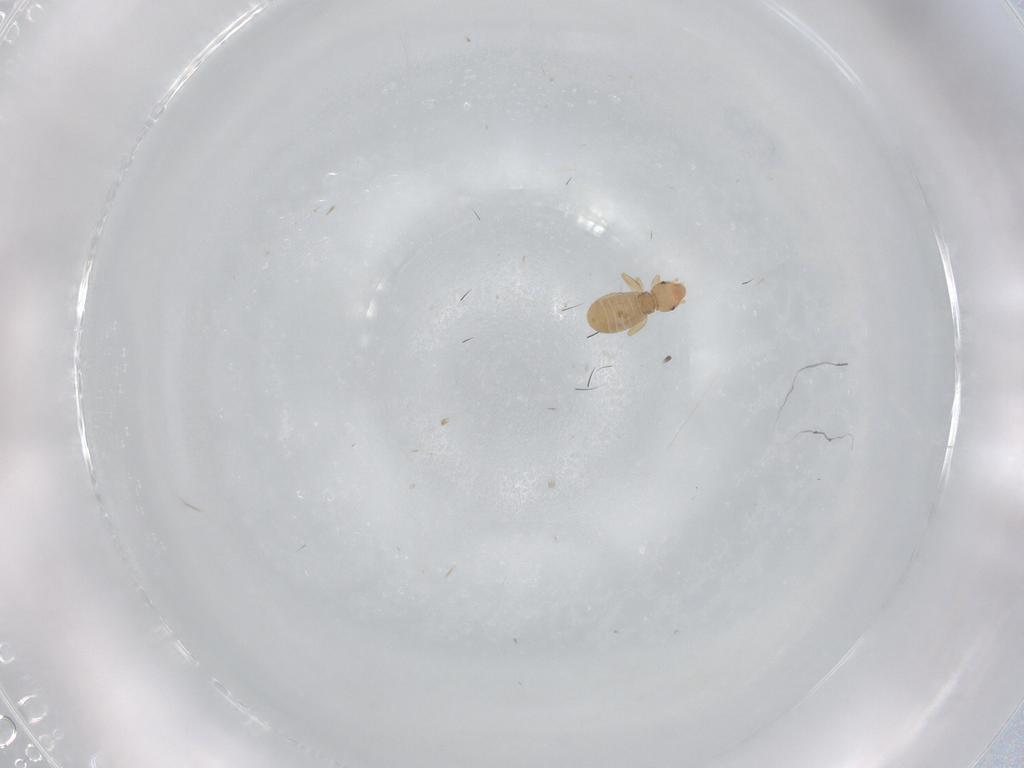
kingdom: Animalia
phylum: Arthropoda
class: Insecta
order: Psocodea
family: Liposcelididae
